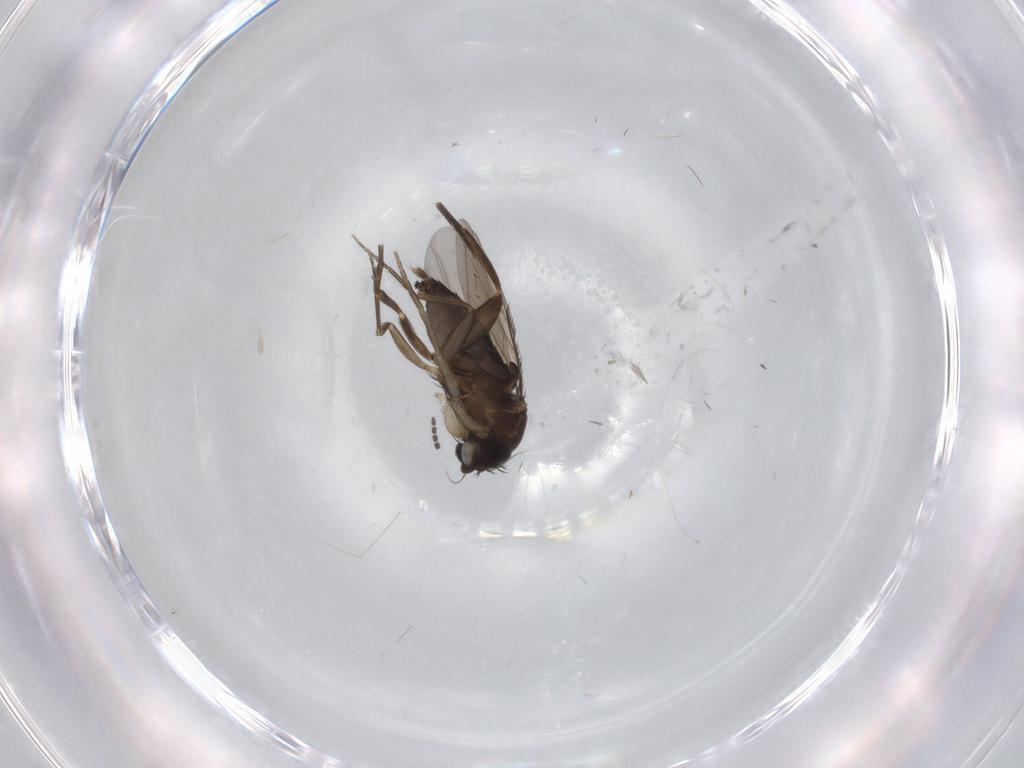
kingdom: Animalia
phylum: Arthropoda
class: Insecta
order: Diptera
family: Phoridae
